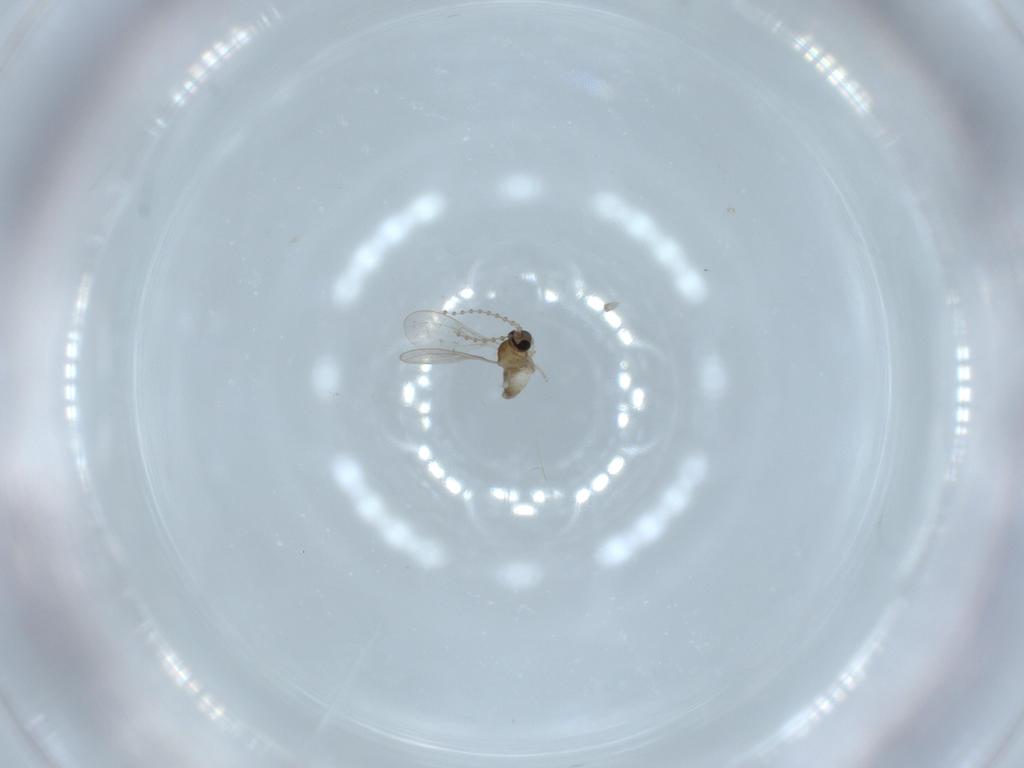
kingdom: Animalia
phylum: Arthropoda
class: Insecta
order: Diptera
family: Cecidomyiidae
